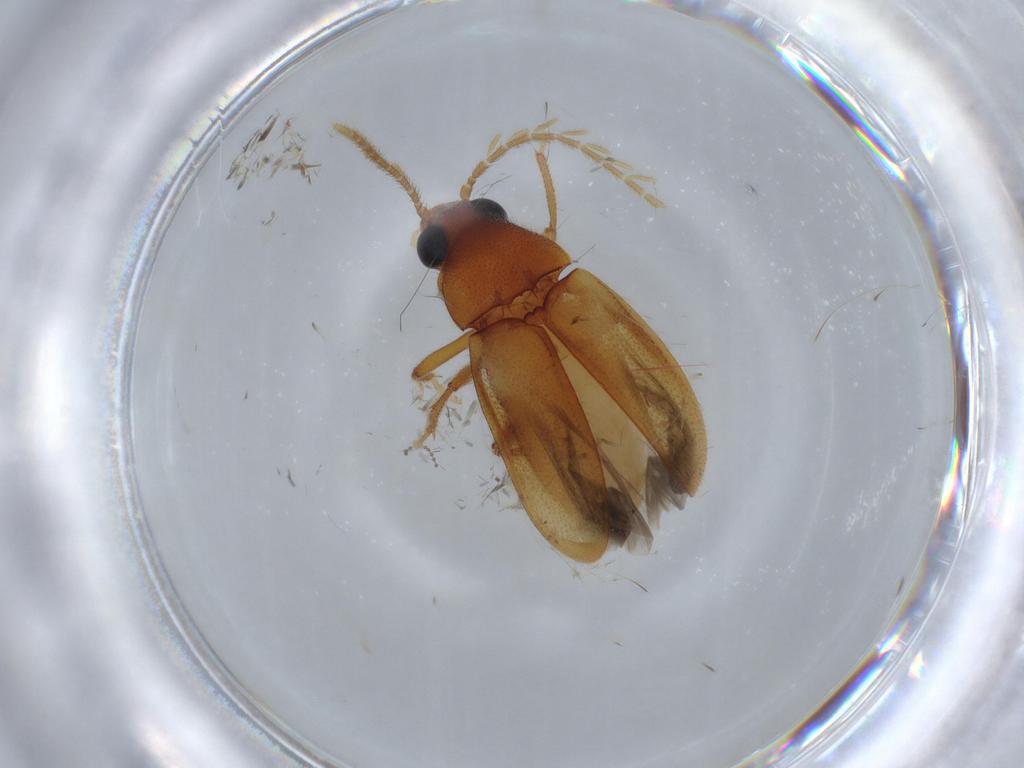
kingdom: Animalia
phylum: Arthropoda
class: Insecta
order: Coleoptera
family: Ptilodactylidae
